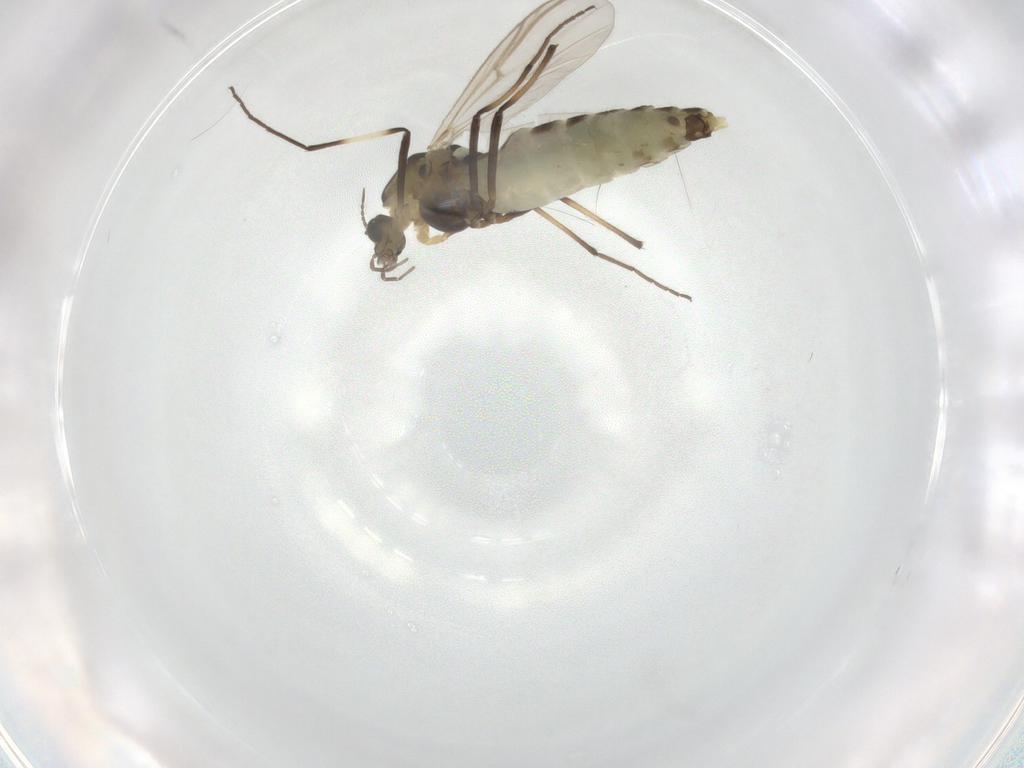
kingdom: Animalia
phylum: Arthropoda
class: Insecta
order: Diptera
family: Chironomidae
